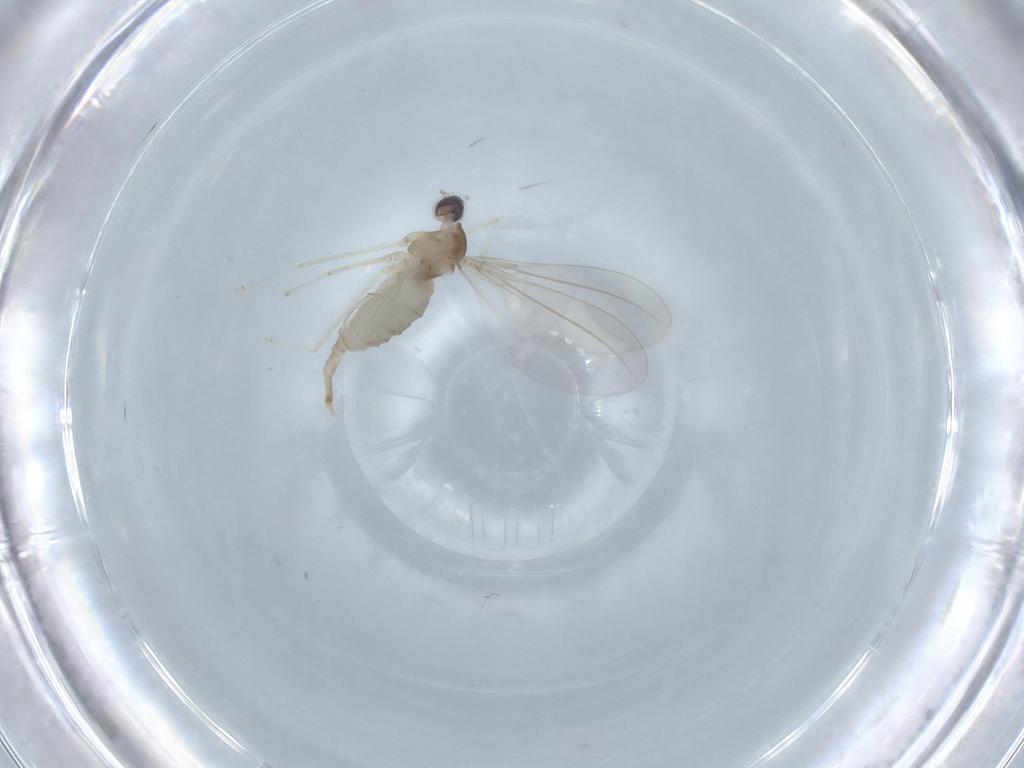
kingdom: Animalia
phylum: Arthropoda
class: Insecta
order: Diptera
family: Cecidomyiidae
